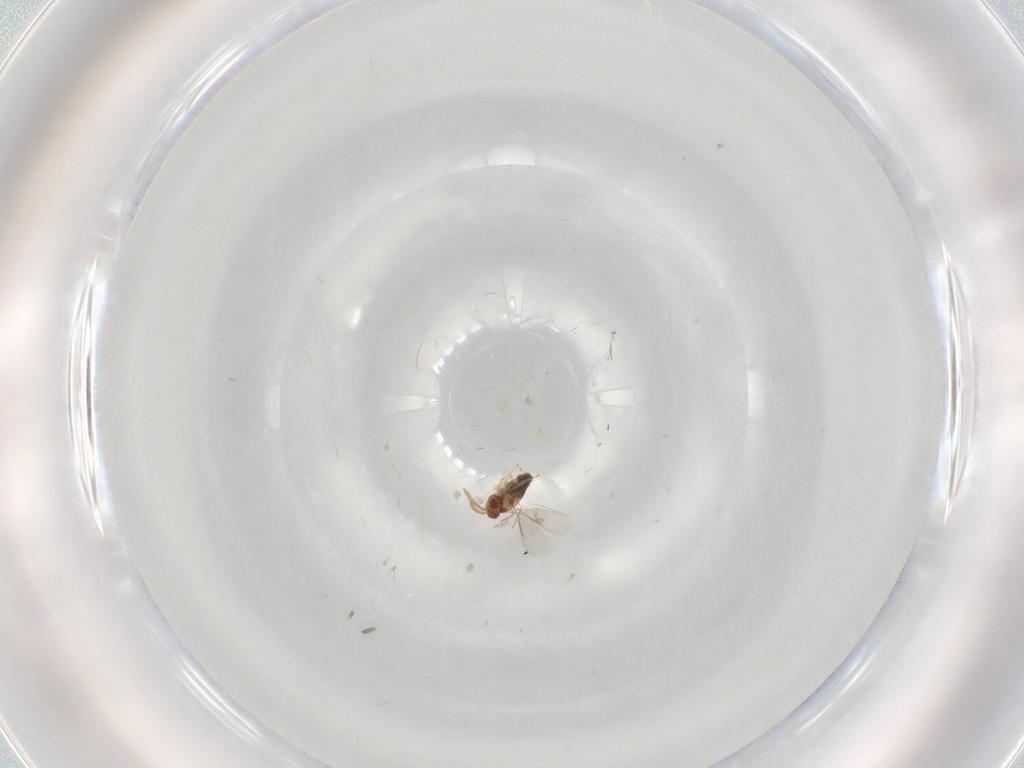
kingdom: Animalia
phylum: Arthropoda
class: Insecta
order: Hymenoptera
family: Aphelinidae
